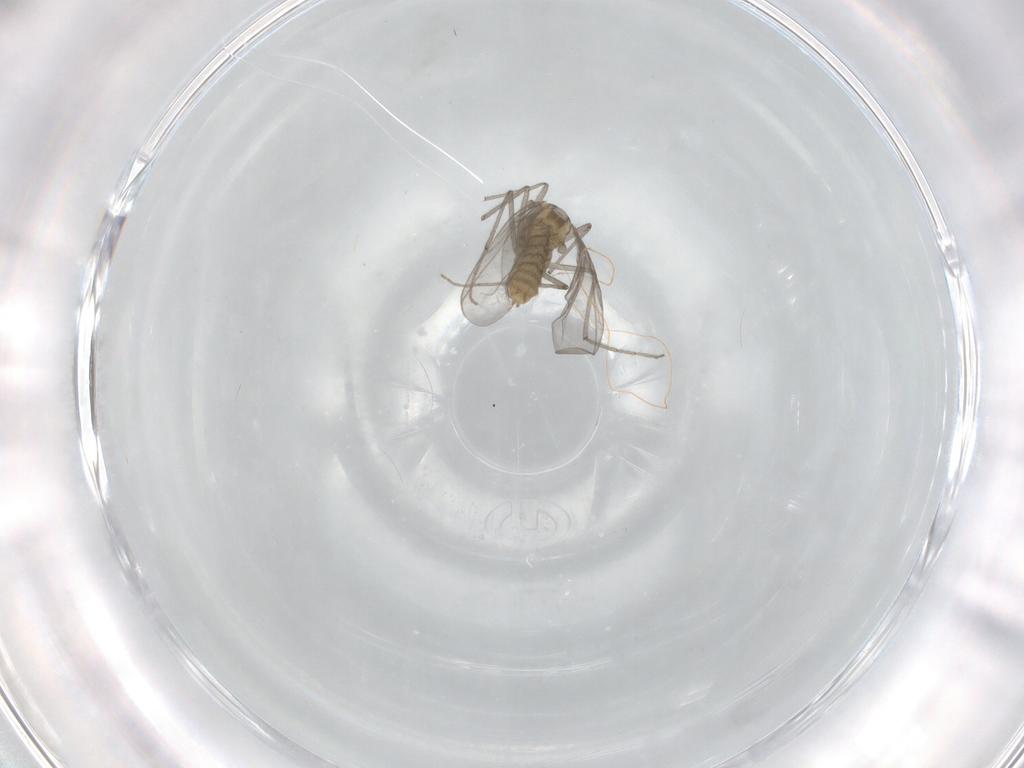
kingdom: Animalia
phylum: Arthropoda
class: Insecta
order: Diptera
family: Chironomidae
